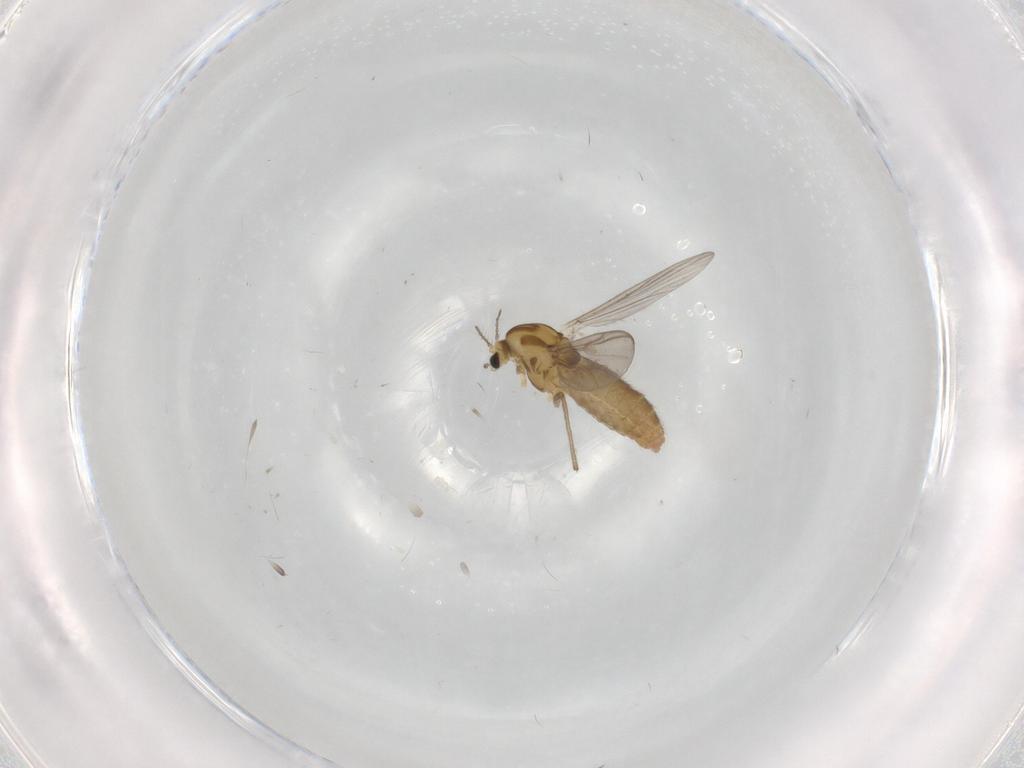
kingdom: Animalia
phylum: Arthropoda
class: Insecta
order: Diptera
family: Chironomidae
